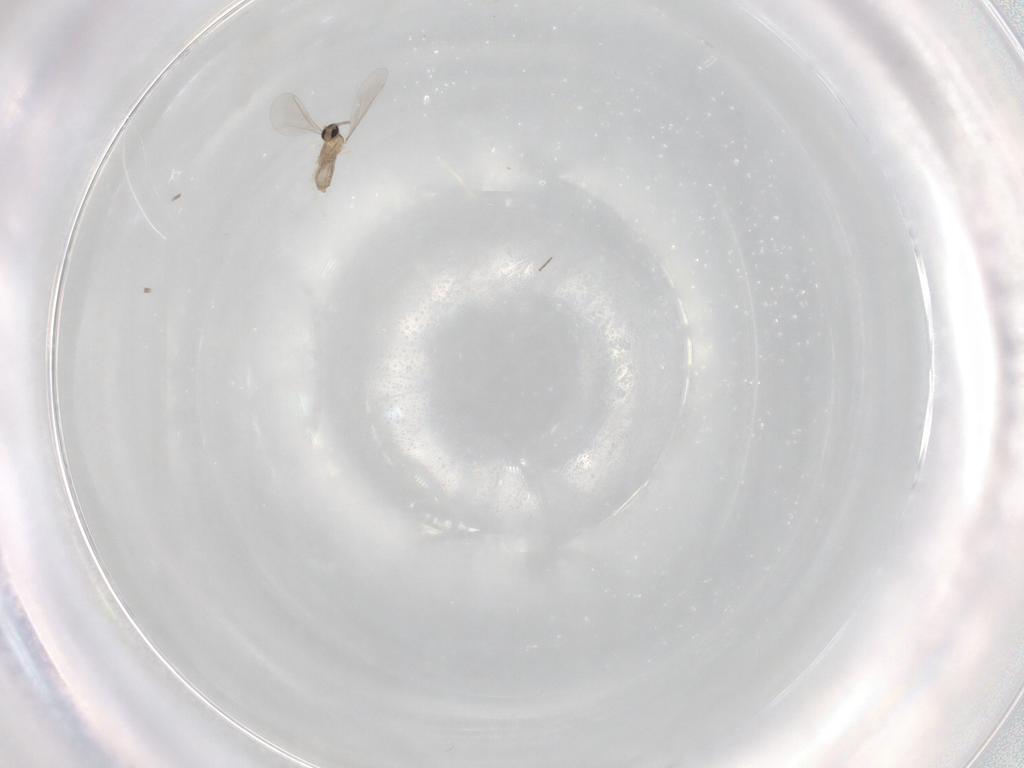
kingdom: Animalia
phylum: Arthropoda
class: Insecta
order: Diptera
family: Cecidomyiidae
